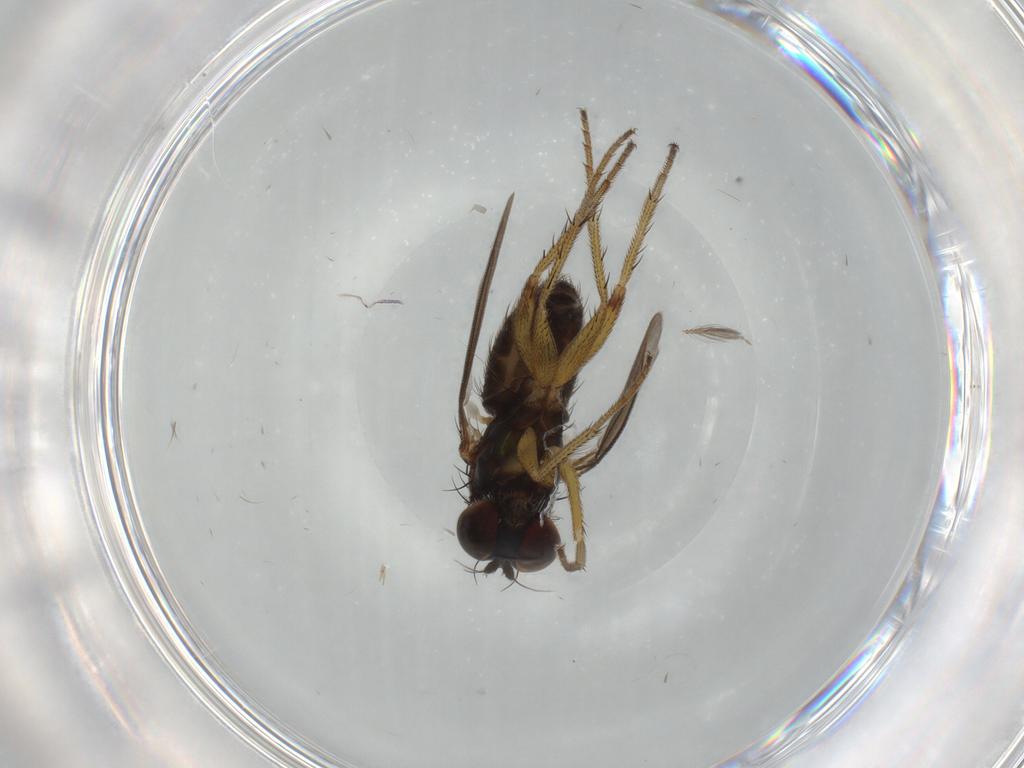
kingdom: Animalia
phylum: Arthropoda
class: Insecta
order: Diptera
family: Dolichopodidae
